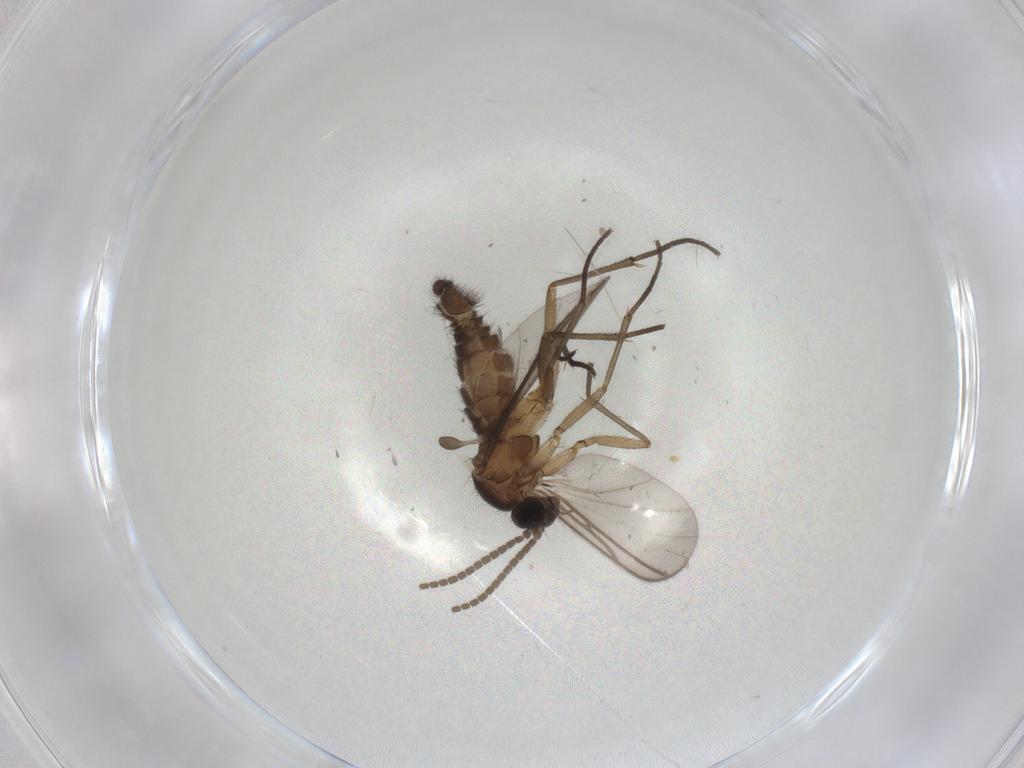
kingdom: Animalia
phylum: Arthropoda
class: Insecta
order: Diptera
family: Sciaridae
